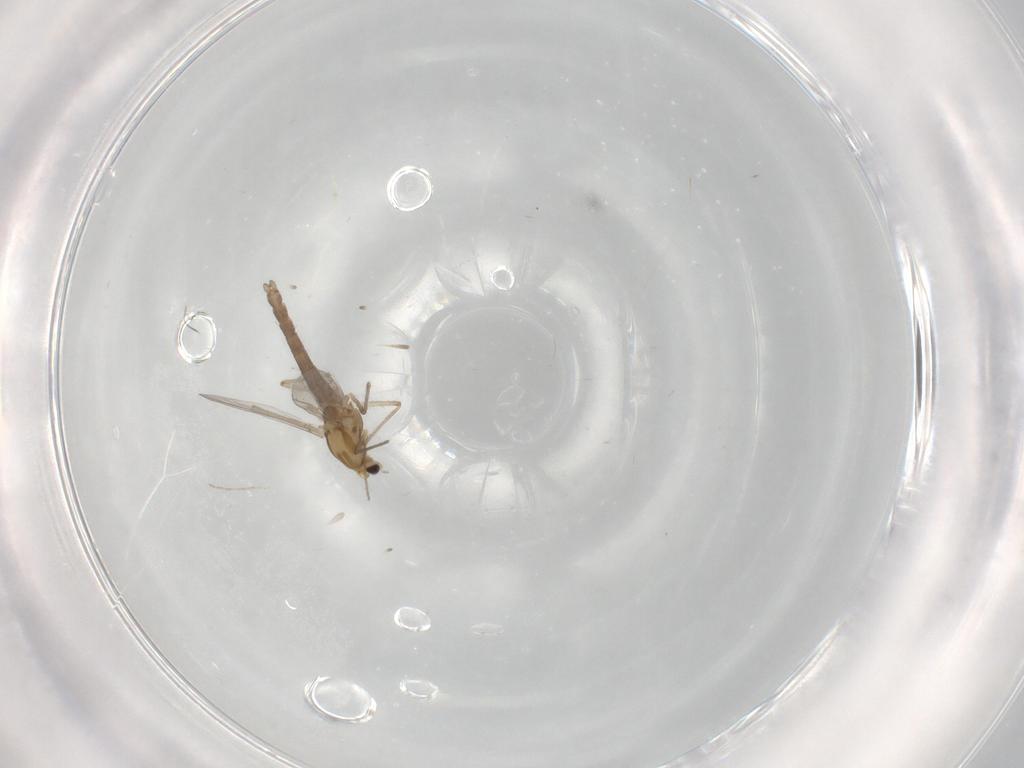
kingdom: Animalia
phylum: Arthropoda
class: Insecta
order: Diptera
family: Chironomidae
